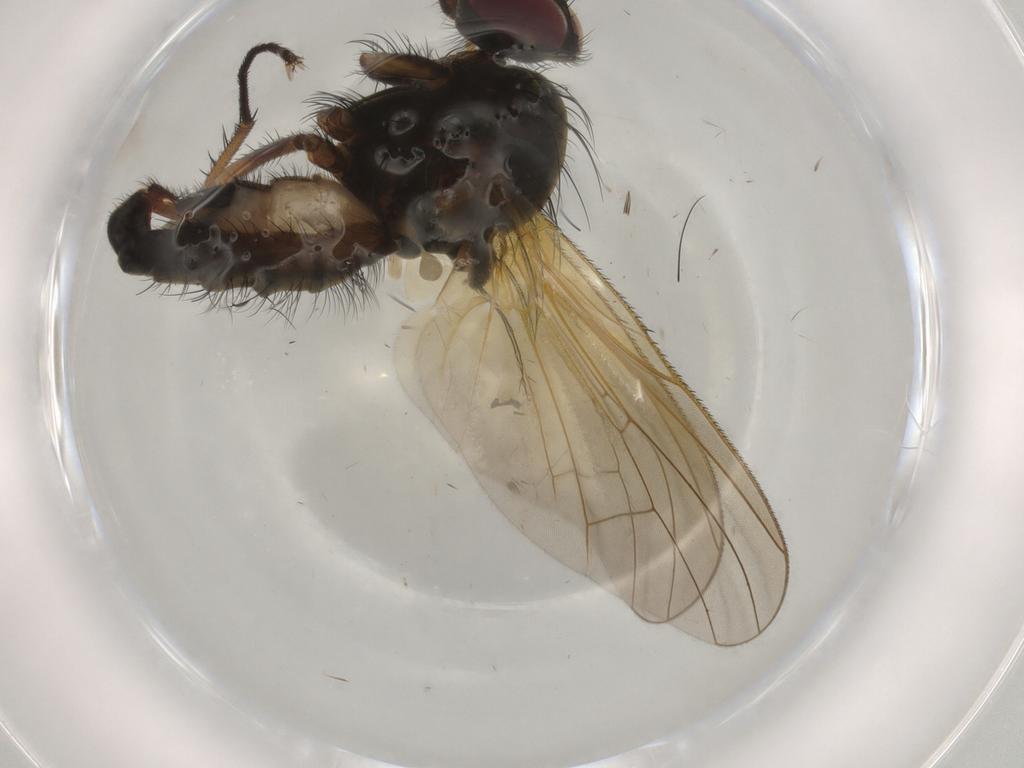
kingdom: Animalia
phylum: Arthropoda
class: Insecta
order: Diptera
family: Anthomyiidae
